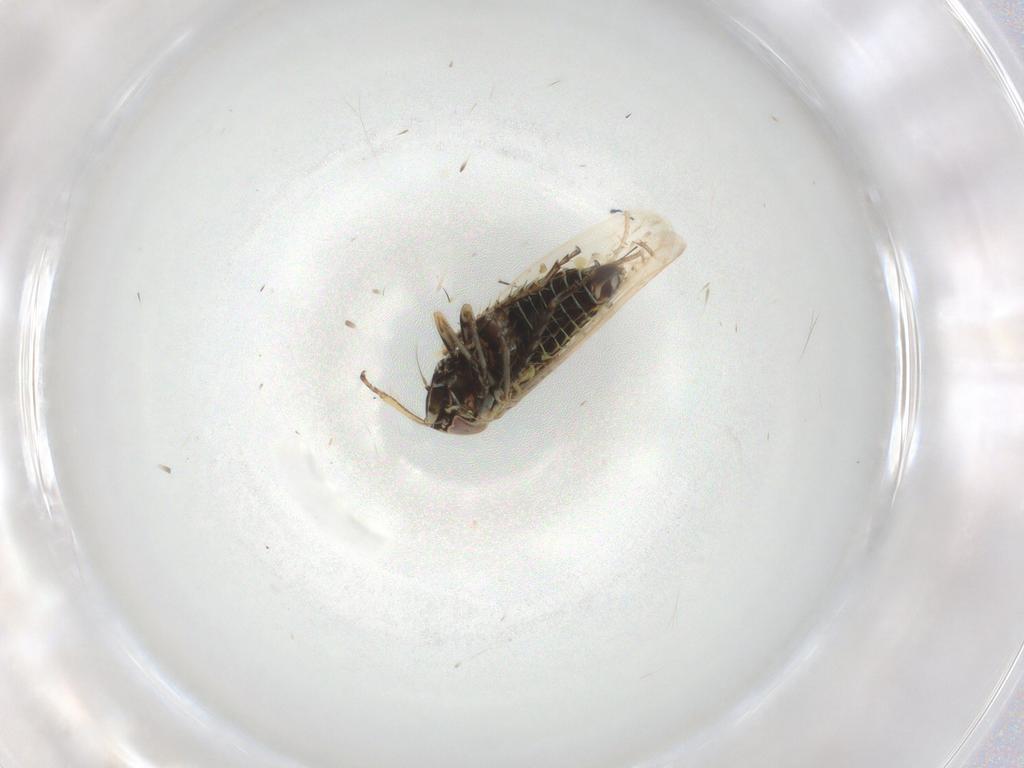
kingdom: Animalia
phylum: Arthropoda
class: Insecta
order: Hemiptera
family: Cicadellidae
